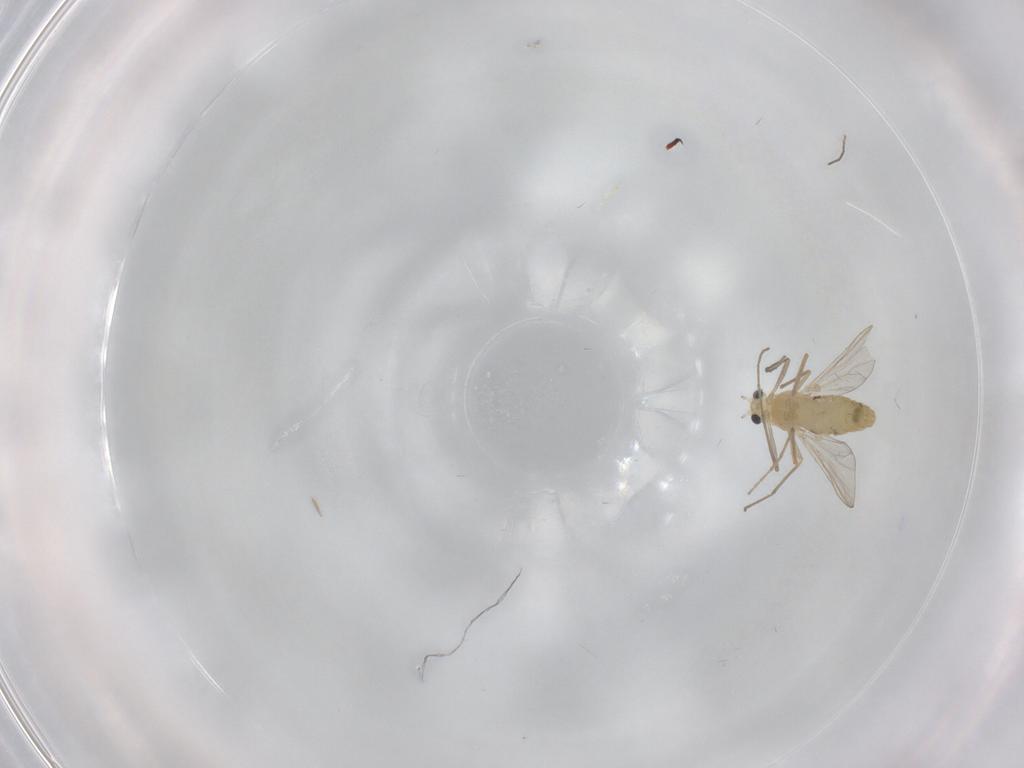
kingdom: Animalia
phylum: Arthropoda
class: Insecta
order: Diptera
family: Chironomidae
